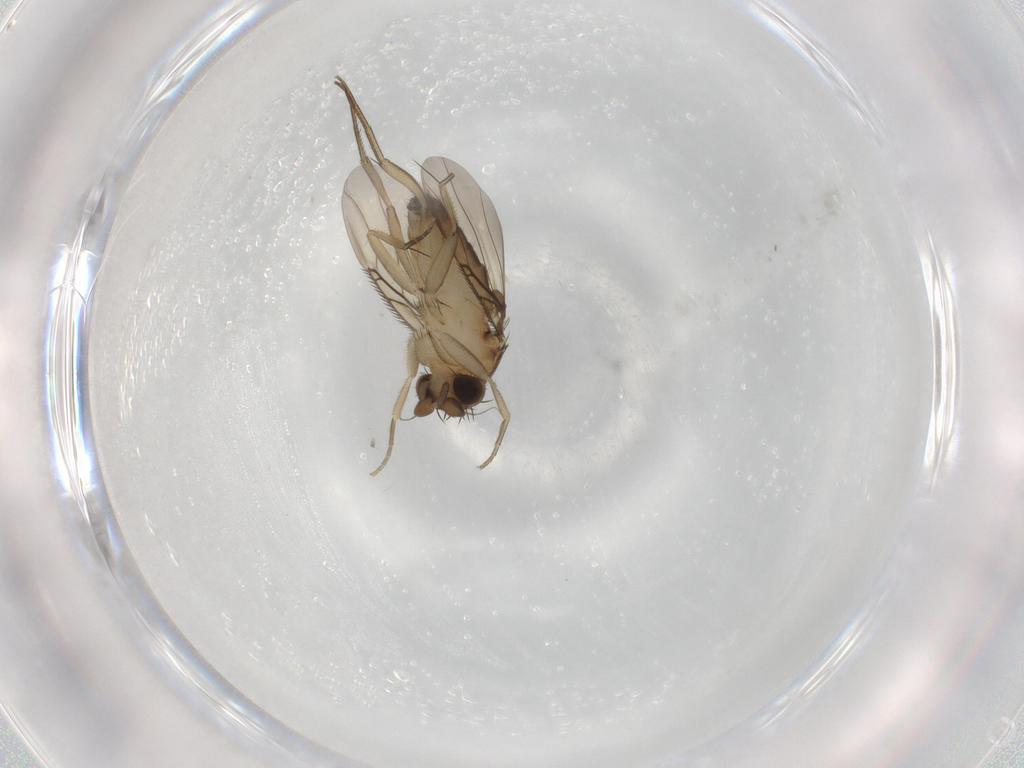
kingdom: Animalia
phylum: Arthropoda
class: Insecta
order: Diptera
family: Phoridae
